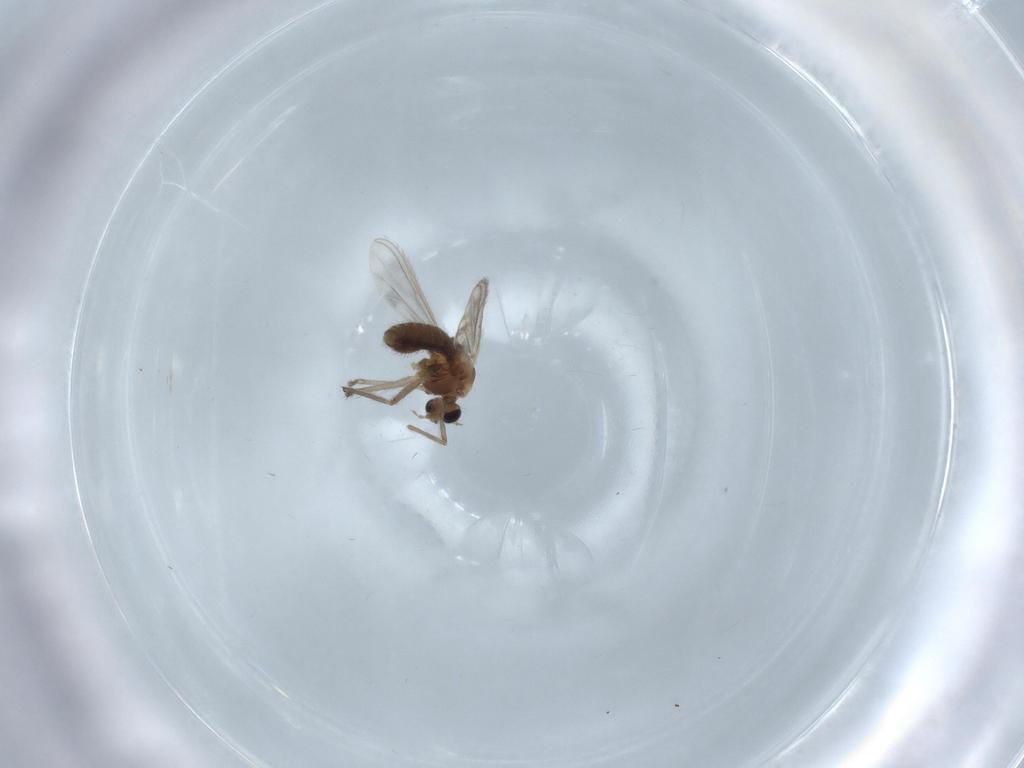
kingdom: Animalia
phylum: Arthropoda
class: Insecta
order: Diptera
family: Chironomidae
